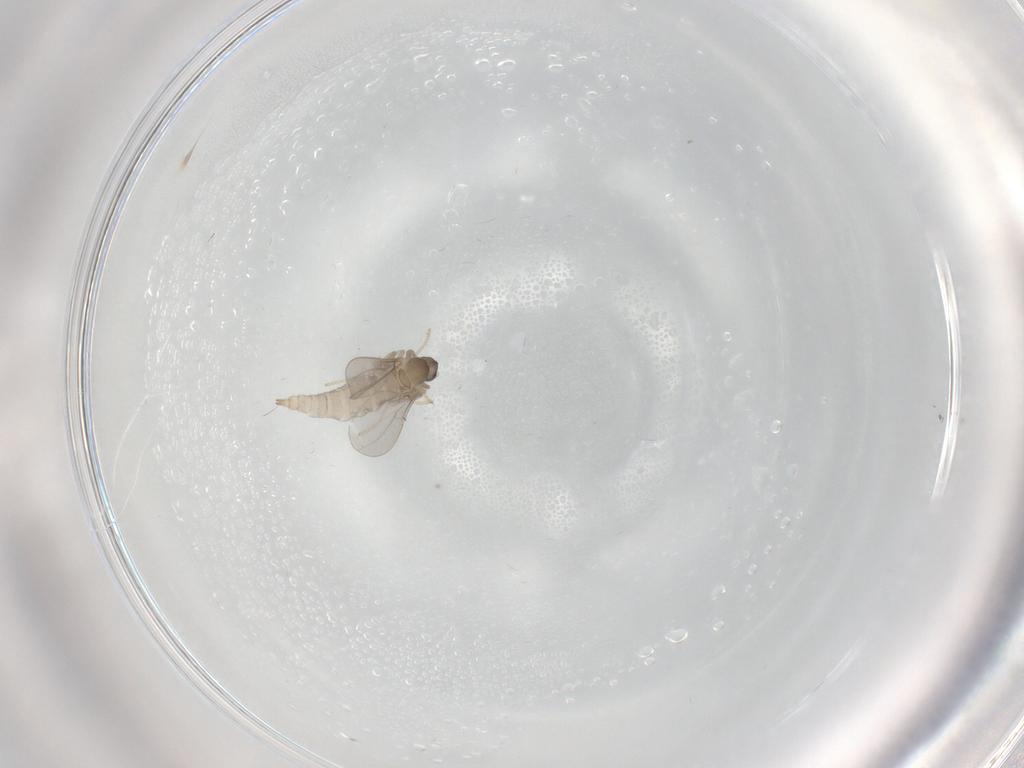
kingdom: Animalia
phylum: Arthropoda
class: Insecta
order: Diptera
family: Cecidomyiidae
